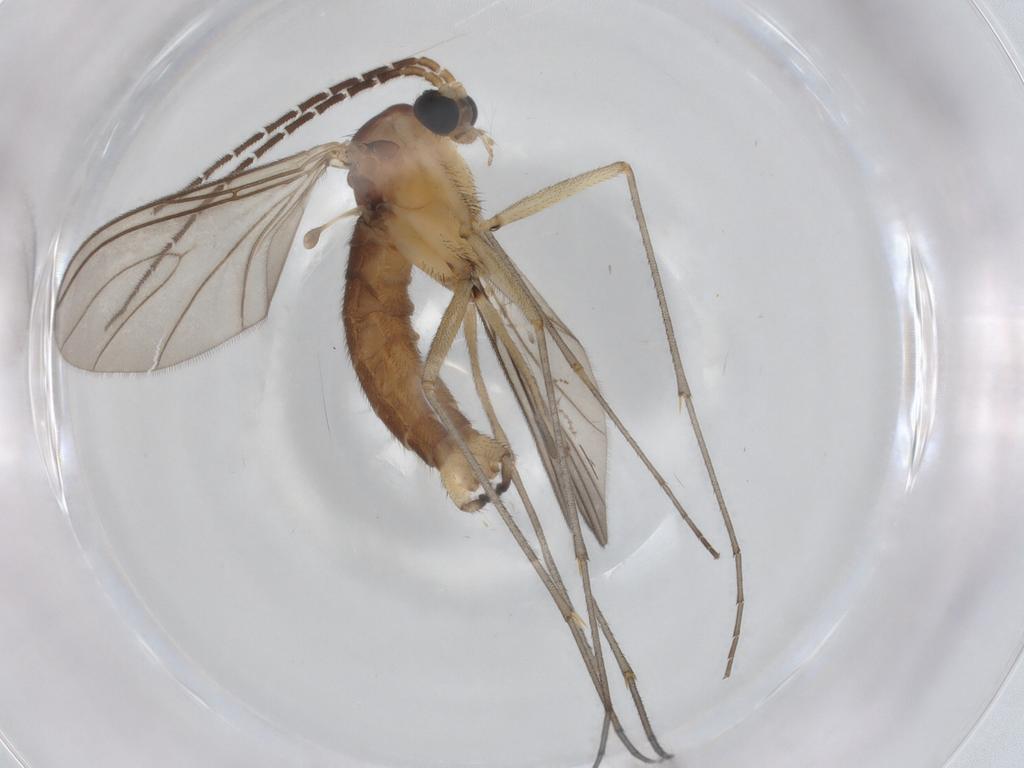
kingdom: Animalia
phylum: Arthropoda
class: Insecta
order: Diptera
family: Sciaridae
